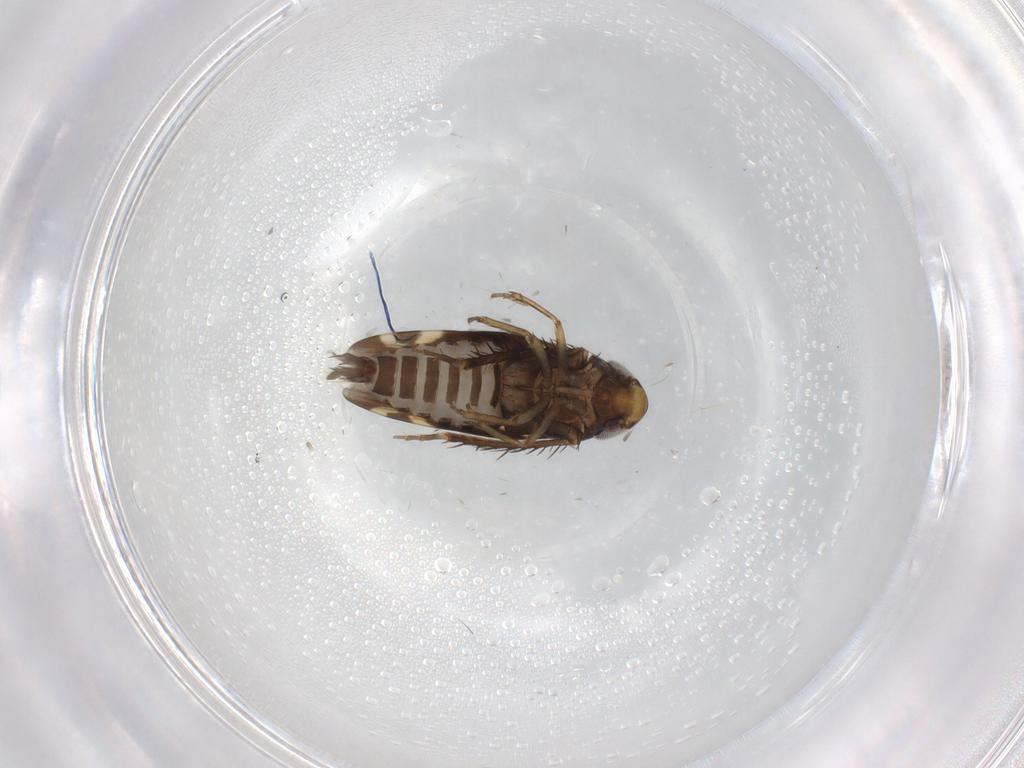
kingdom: Animalia
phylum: Arthropoda
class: Insecta
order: Hemiptera
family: Cicadellidae
